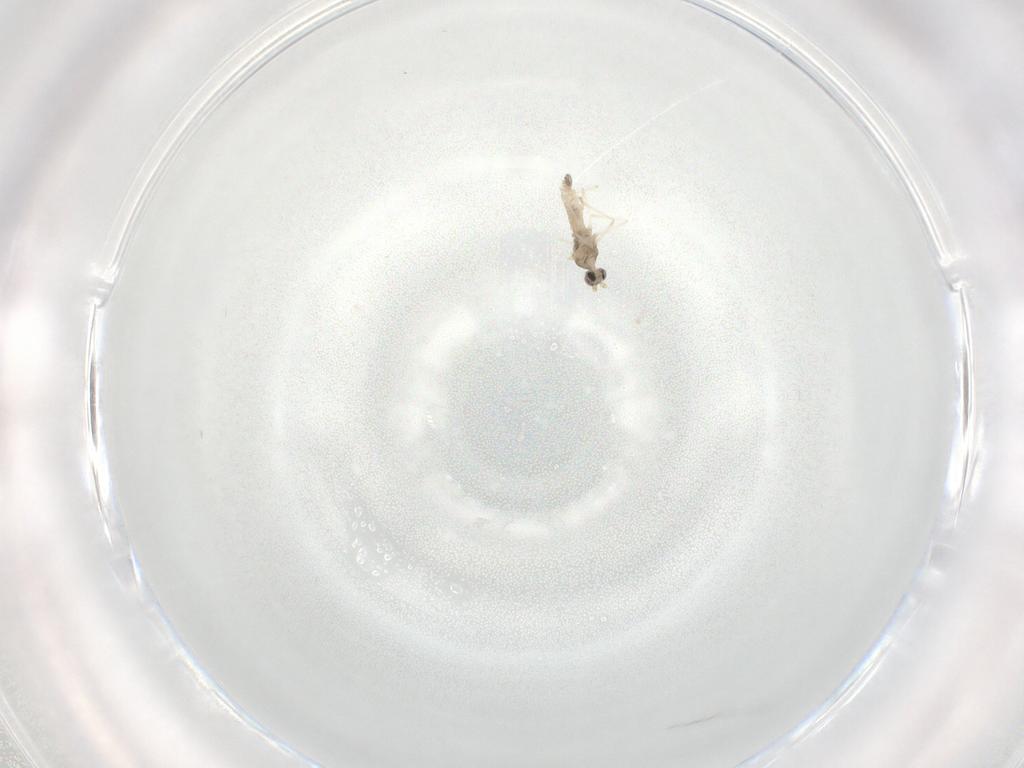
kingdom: Animalia
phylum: Arthropoda
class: Insecta
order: Diptera
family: Cecidomyiidae
